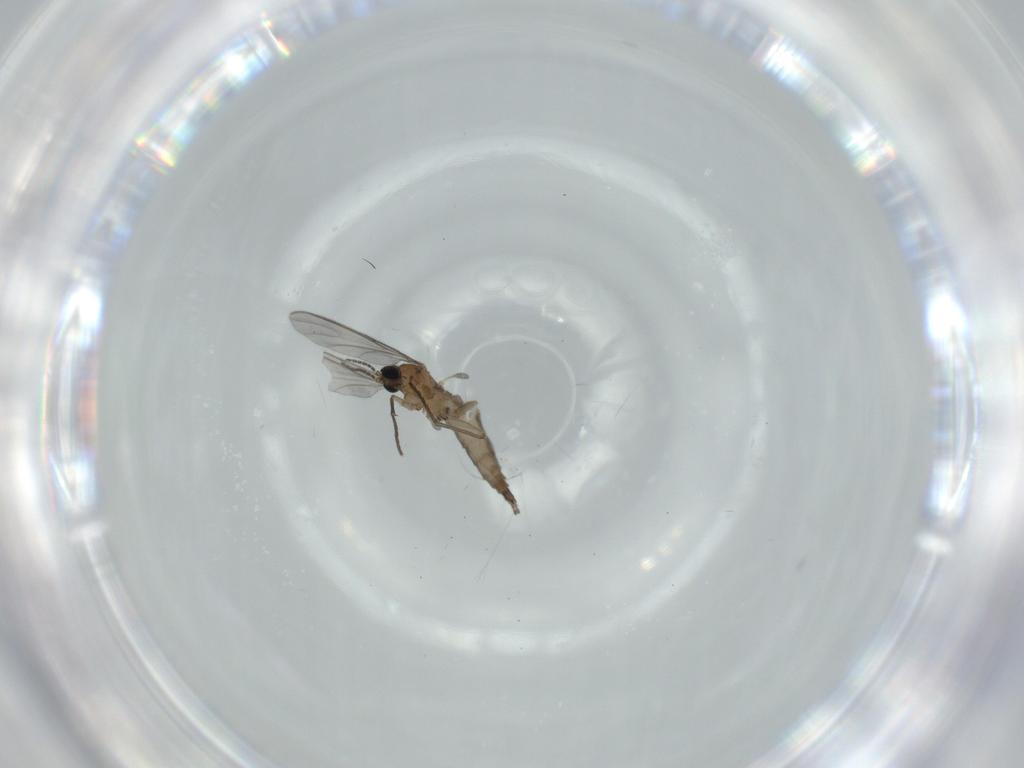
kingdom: Animalia
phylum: Arthropoda
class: Insecta
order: Diptera
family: Sciaridae
